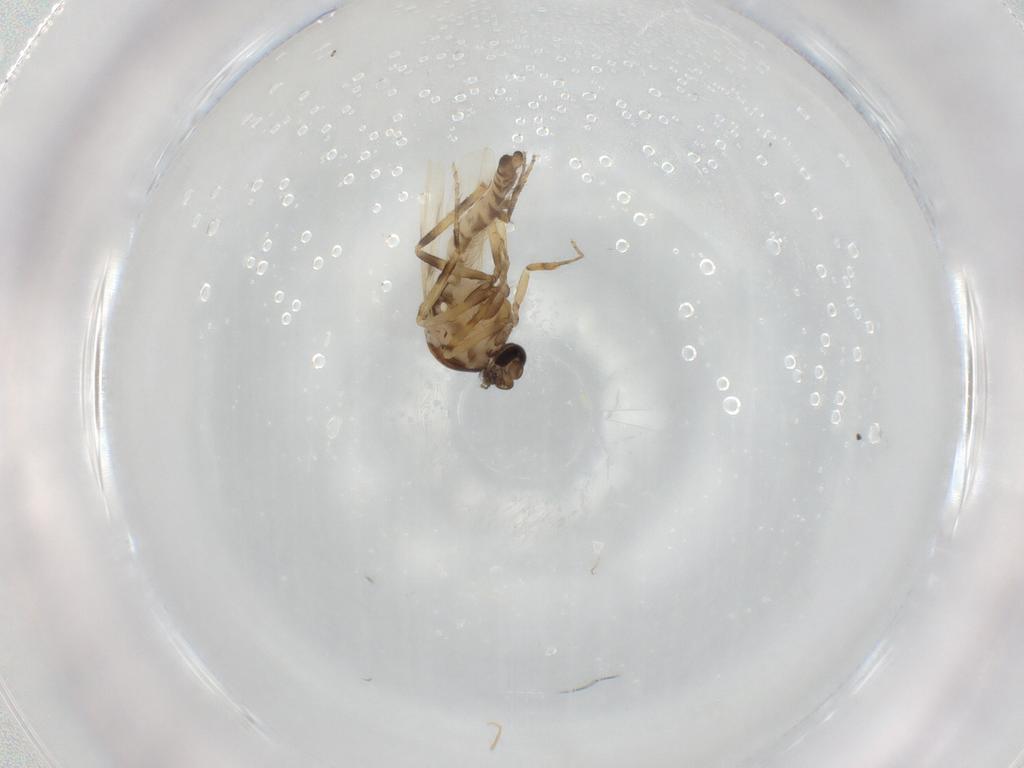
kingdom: Animalia
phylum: Arthropoda
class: Insecta
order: Diptera
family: Ceratopogonidae
